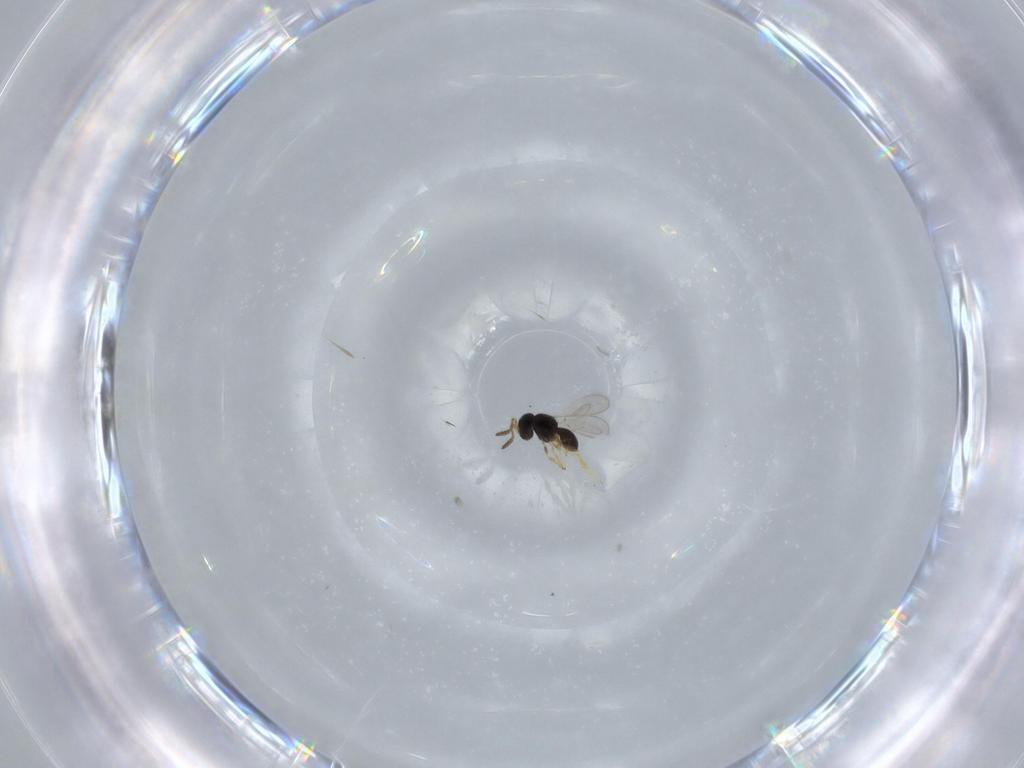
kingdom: Animalia
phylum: Arthropoda
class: Insecta
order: Hymenoptera
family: Scelionidae
